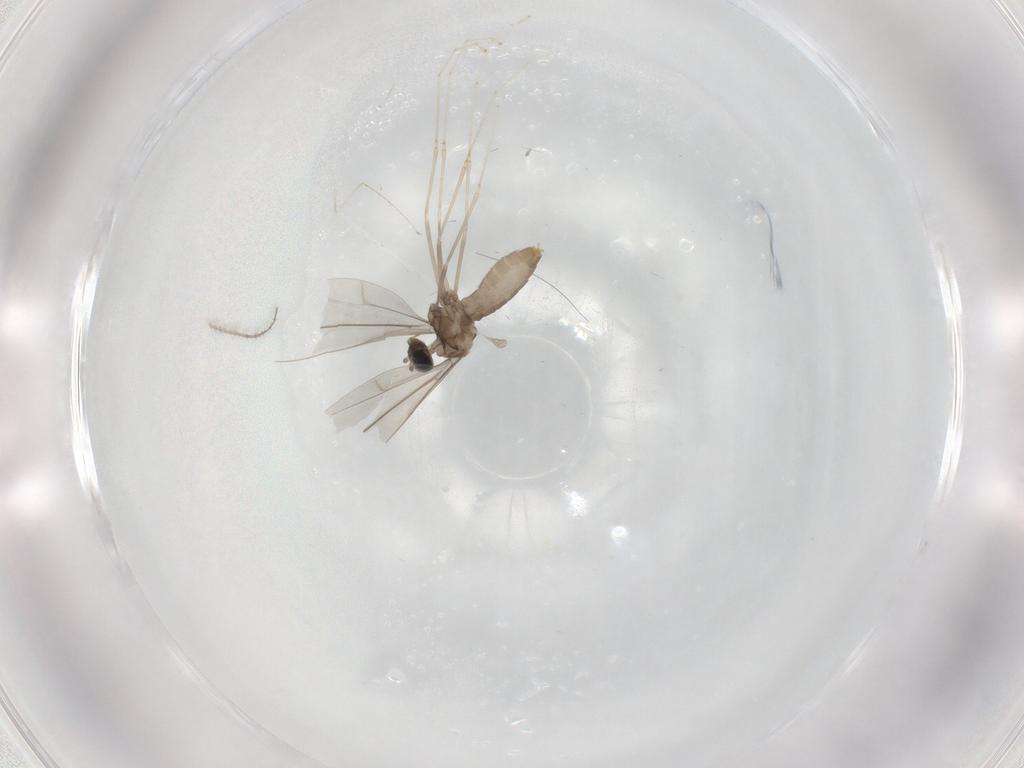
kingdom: Animalia
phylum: Arthropoda
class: Insecta
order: Diptera
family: Cecidomyiidae
